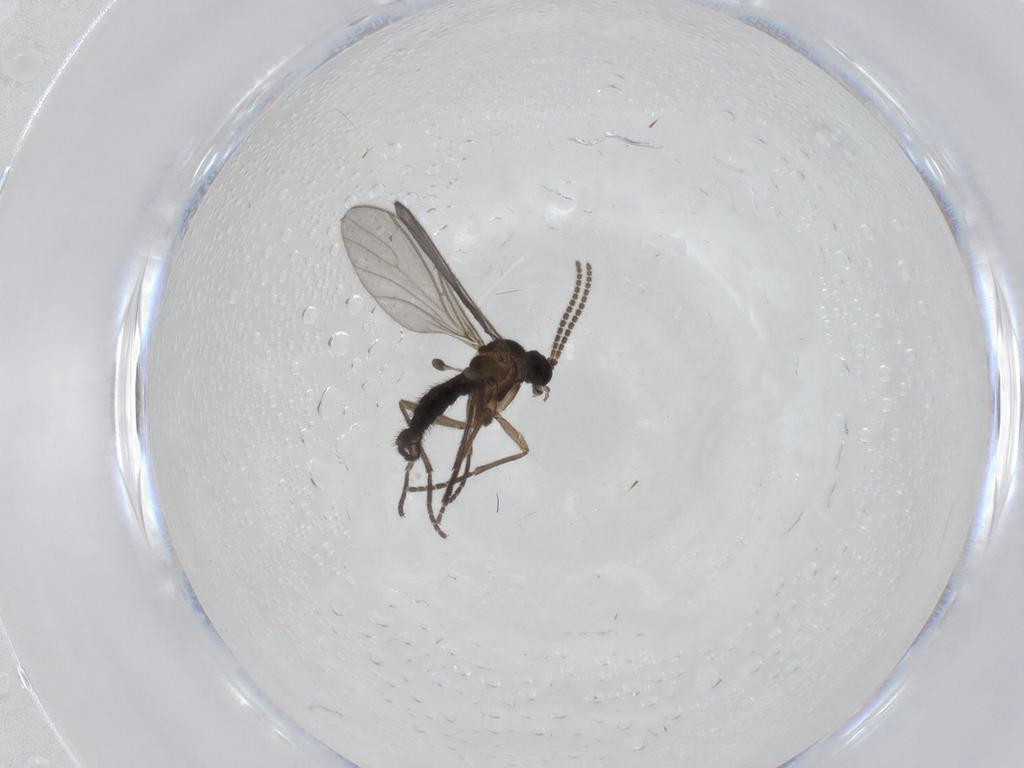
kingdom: Animalia
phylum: Arthropoda
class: Insecta
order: Diptera
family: Sciaridae
